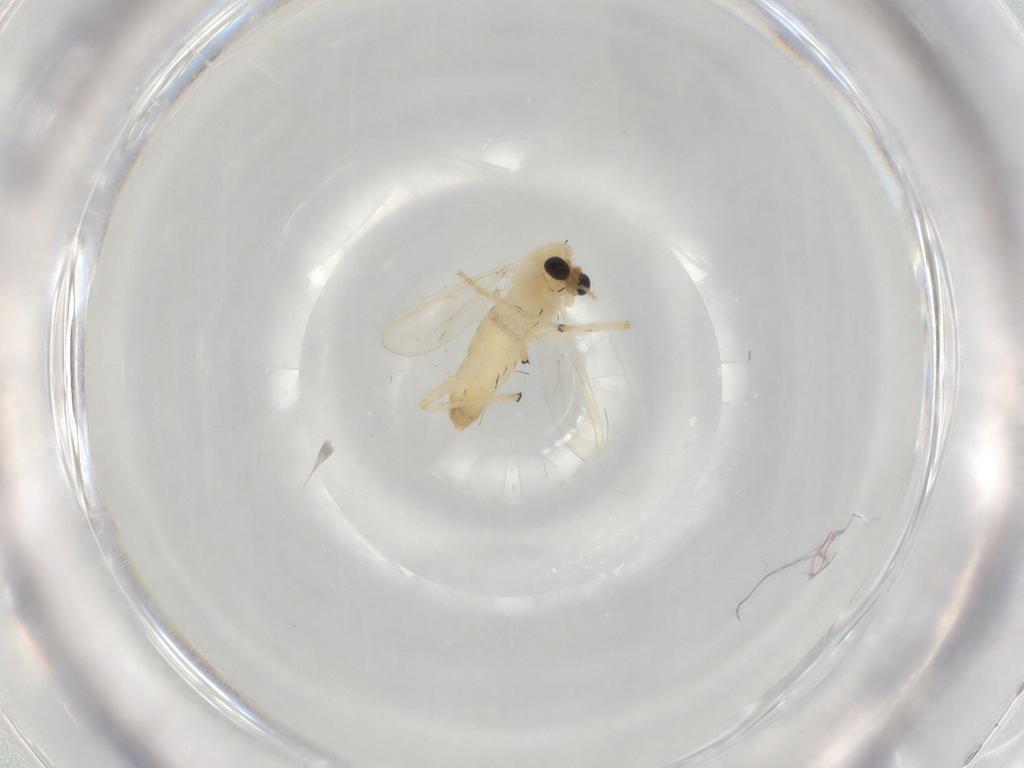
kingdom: Animalia
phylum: Arthropoda
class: Insecta
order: Diptera
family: Chironomidae
